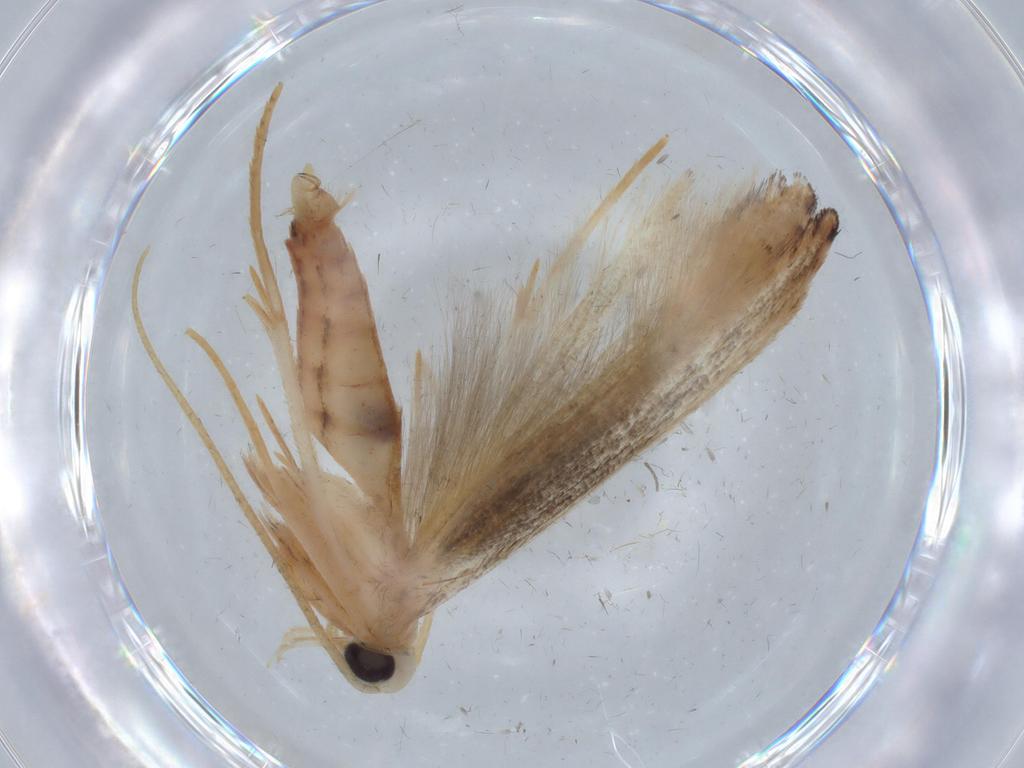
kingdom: Animalia
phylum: Arthropoda
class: Insecta
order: Lepidoptera
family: Coleophoridae
